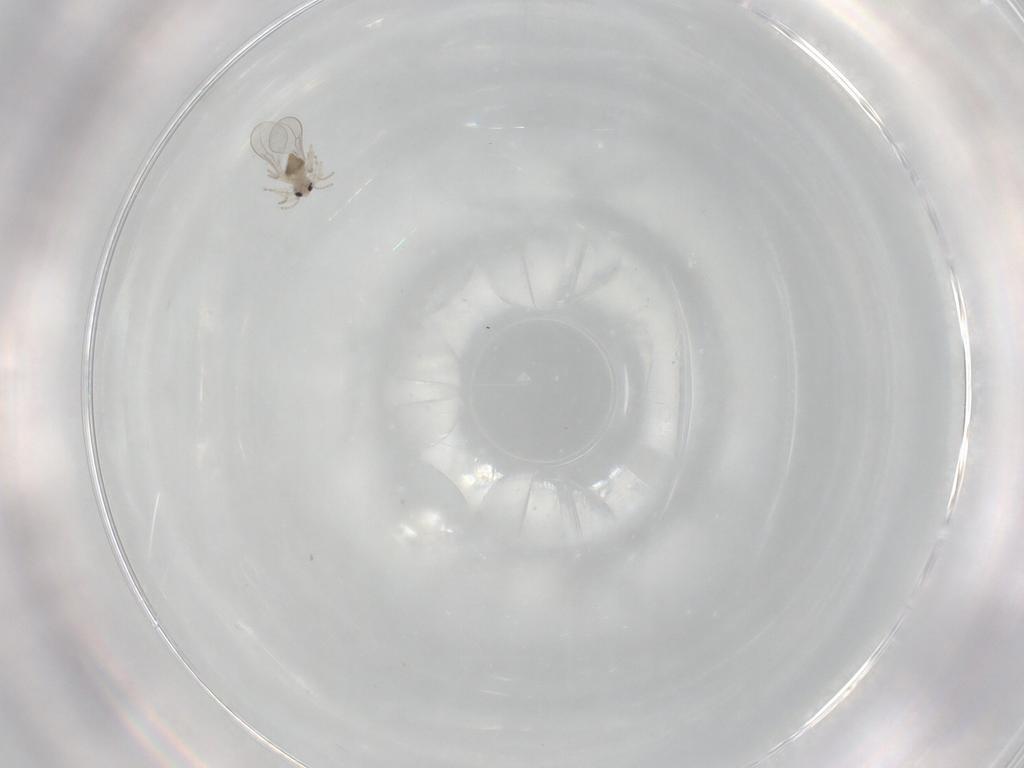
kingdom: Animalia
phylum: Arthropoda
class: Insecta
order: Diptera
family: Cecidomyiidae
